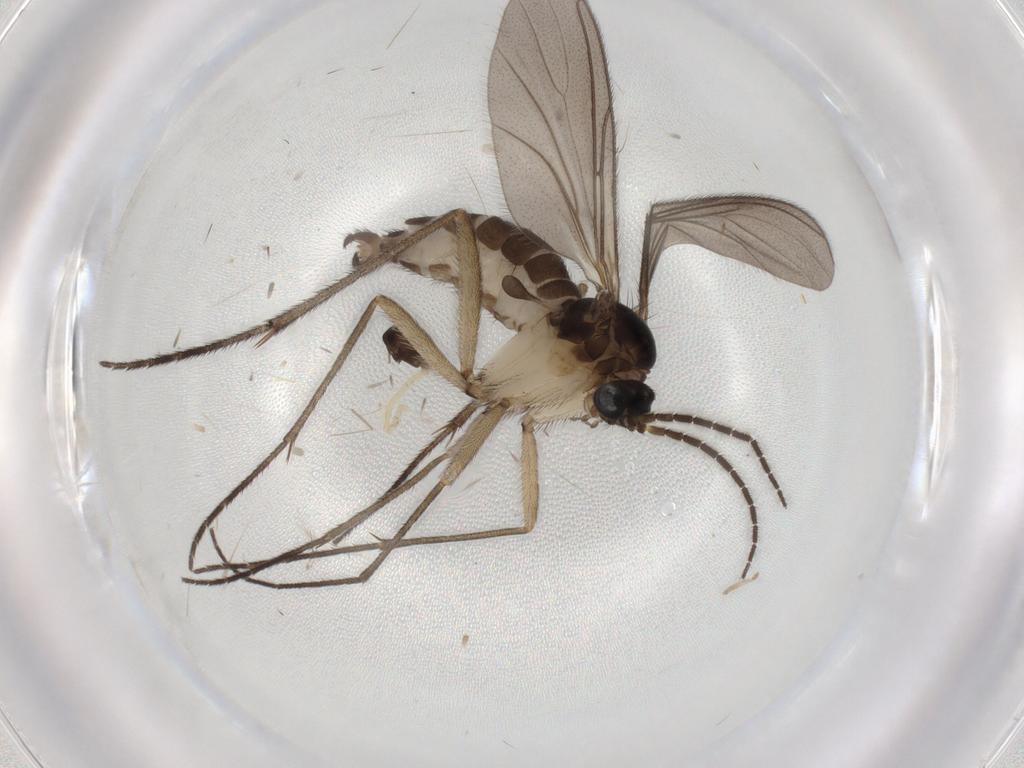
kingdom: Animalia
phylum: Arthropoda
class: Insecta
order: Diptera
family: Sciaridae
